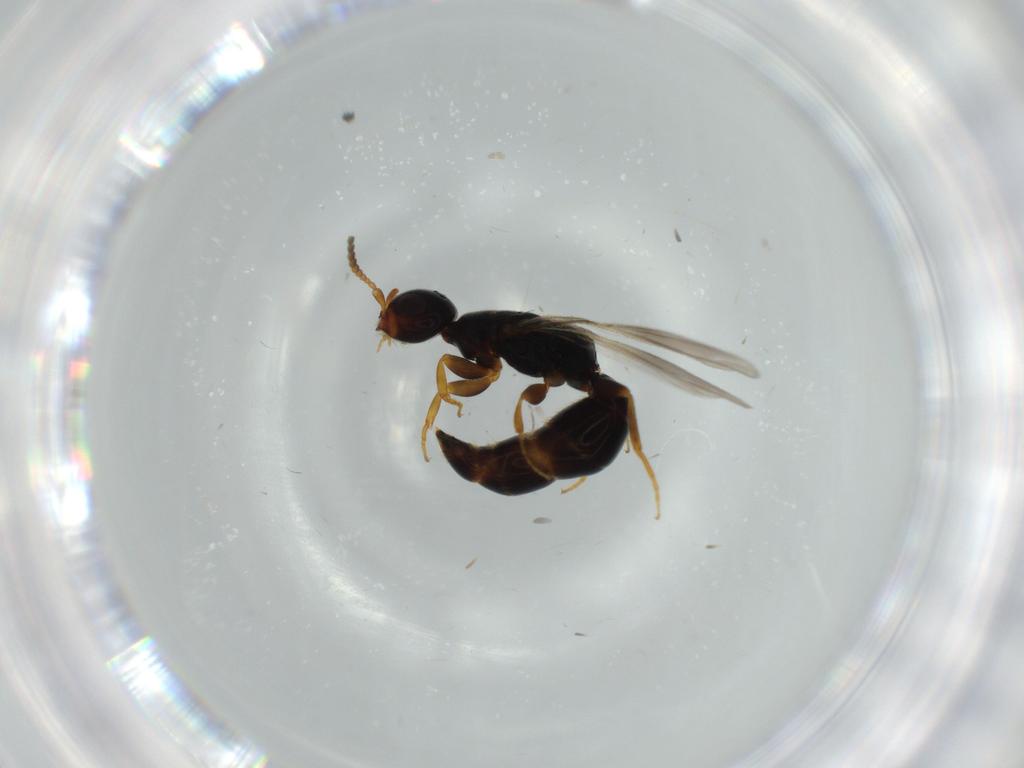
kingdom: Animalia
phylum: Arthropoda
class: Insecta
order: Hymenoptera
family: Bethylidae
